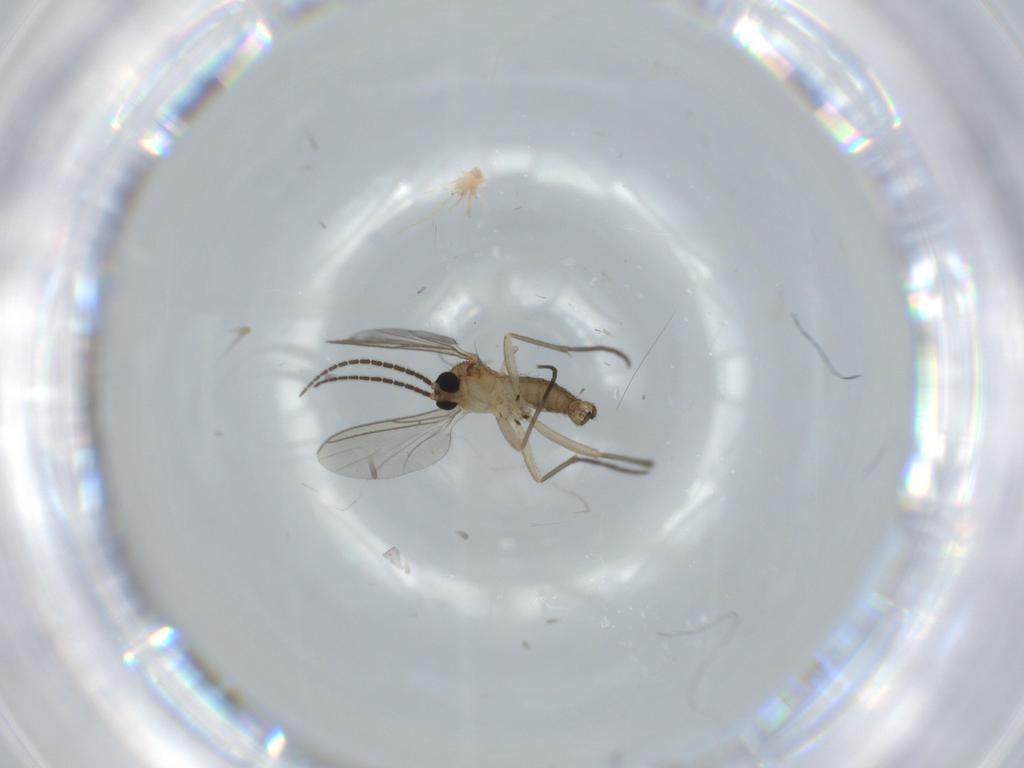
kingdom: Animalia
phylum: Arthropoda
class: Insecta
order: Diptera
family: Sciaridae
